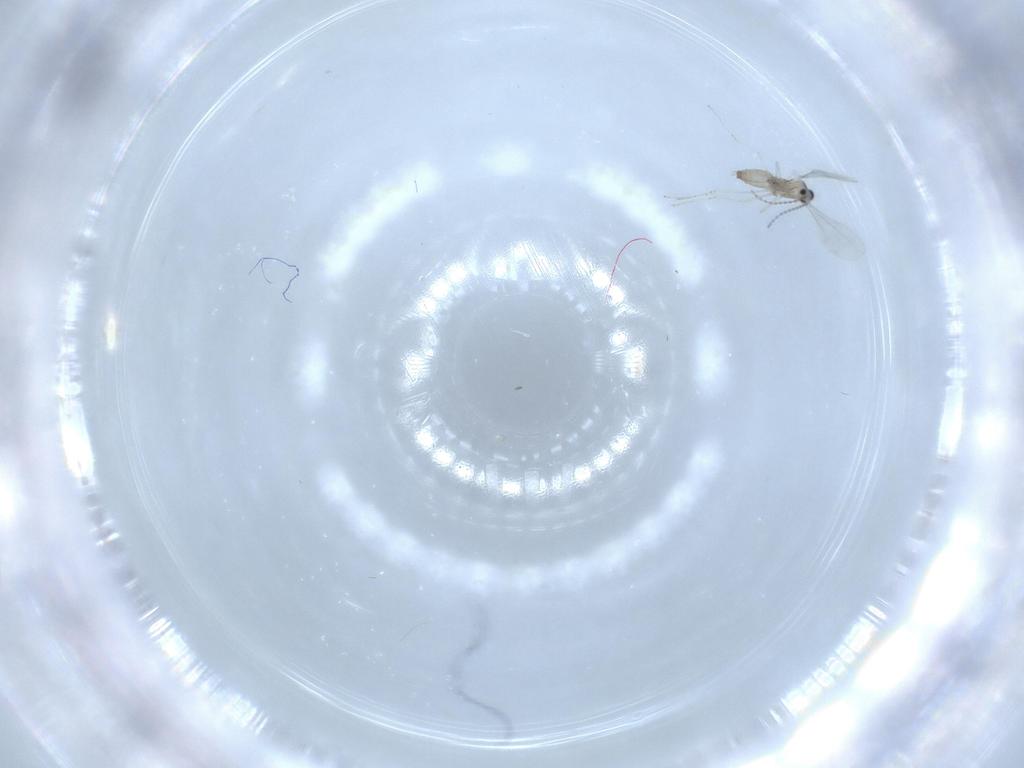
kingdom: Animalia
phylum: Arthropoda
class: Insecta
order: Diptera
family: Cecidomyiidae
